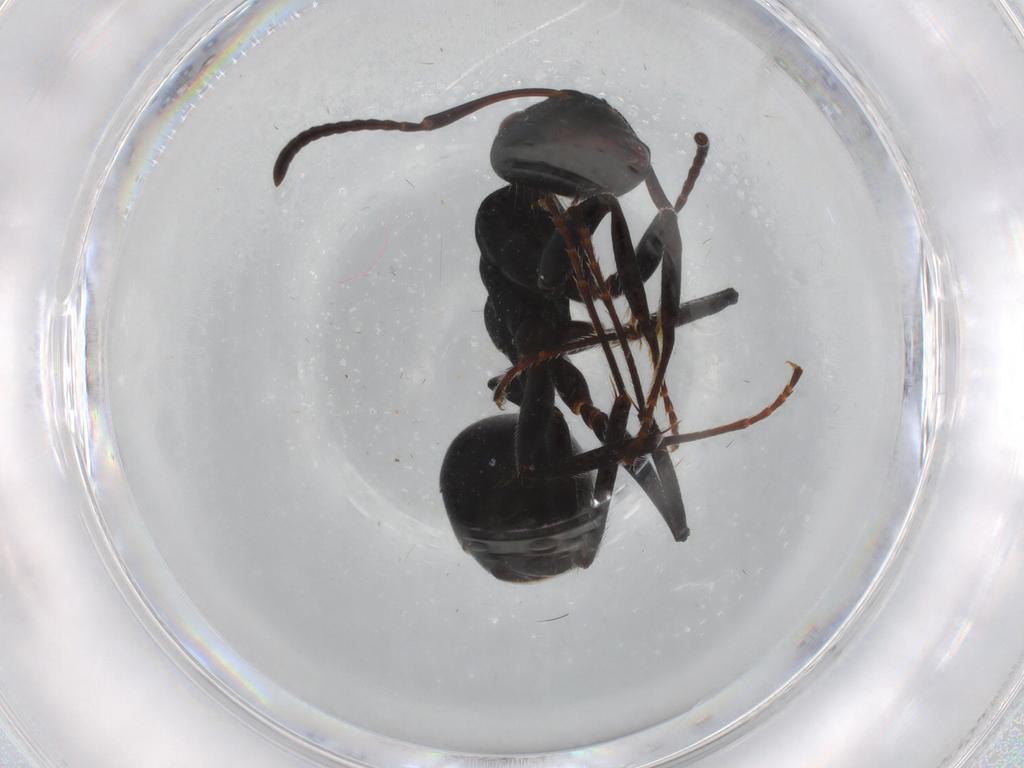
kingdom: Animalia
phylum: Arthropoda
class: Insecta
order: Hymenoptera
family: Formicidae
